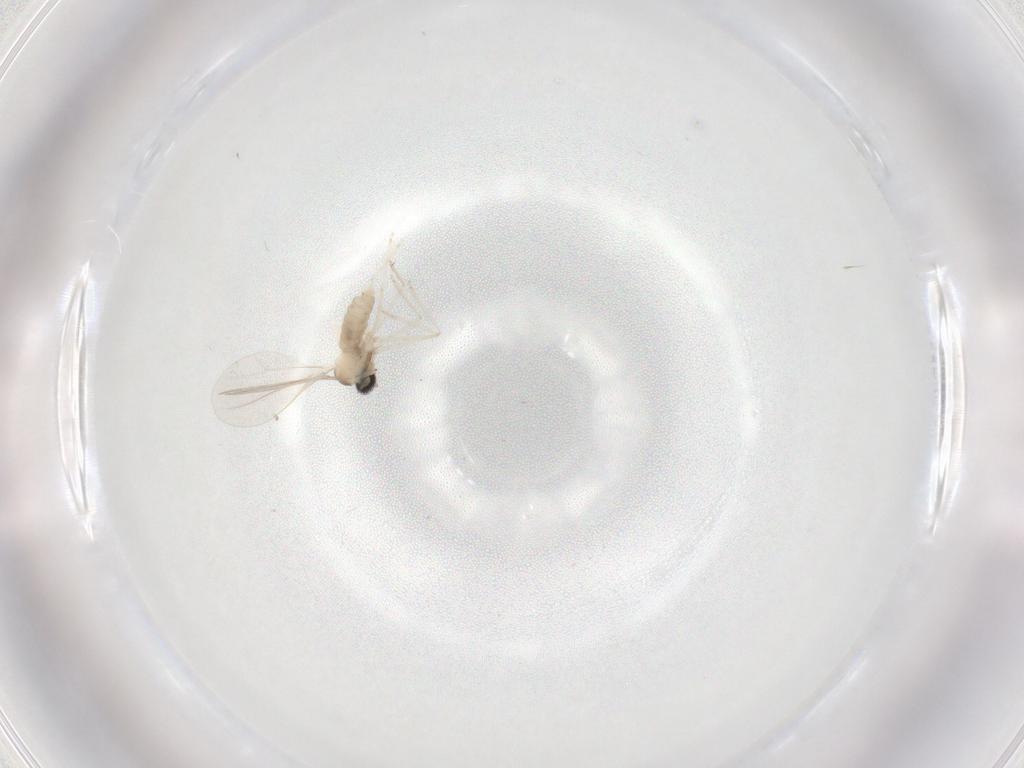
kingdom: Animalia
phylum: Arthropoda
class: Insecta
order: Diptera
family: Cecidomyiidae
